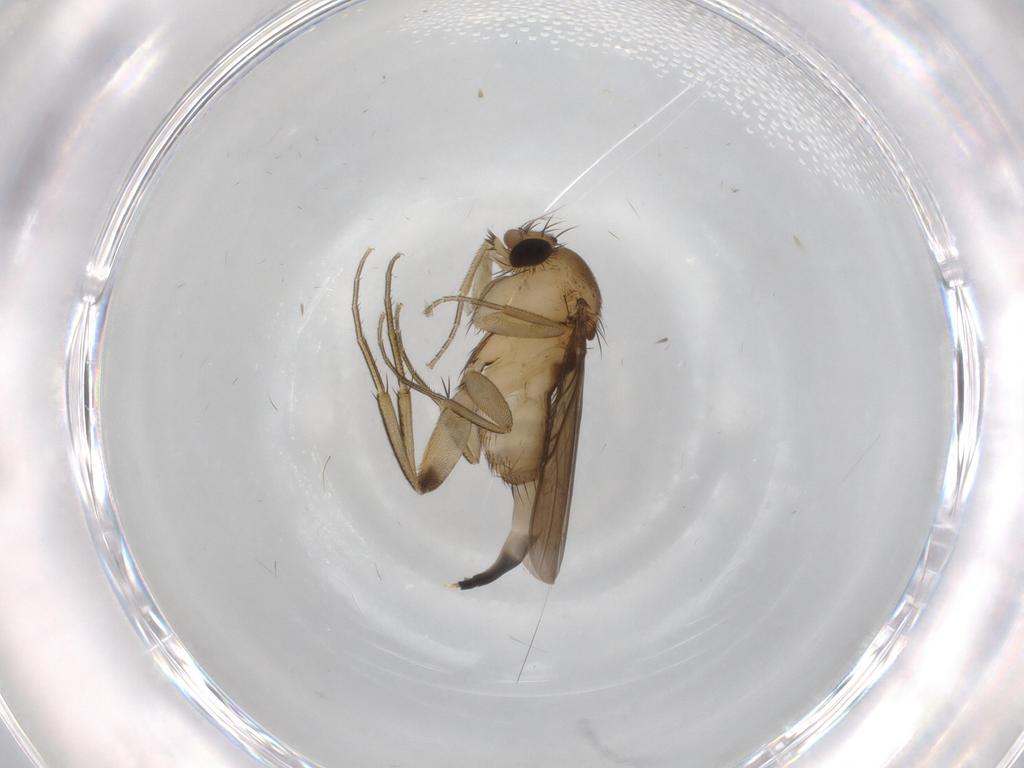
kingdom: Animalia
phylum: Arthropoda
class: Insecta
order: Diptera
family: Phoridae
